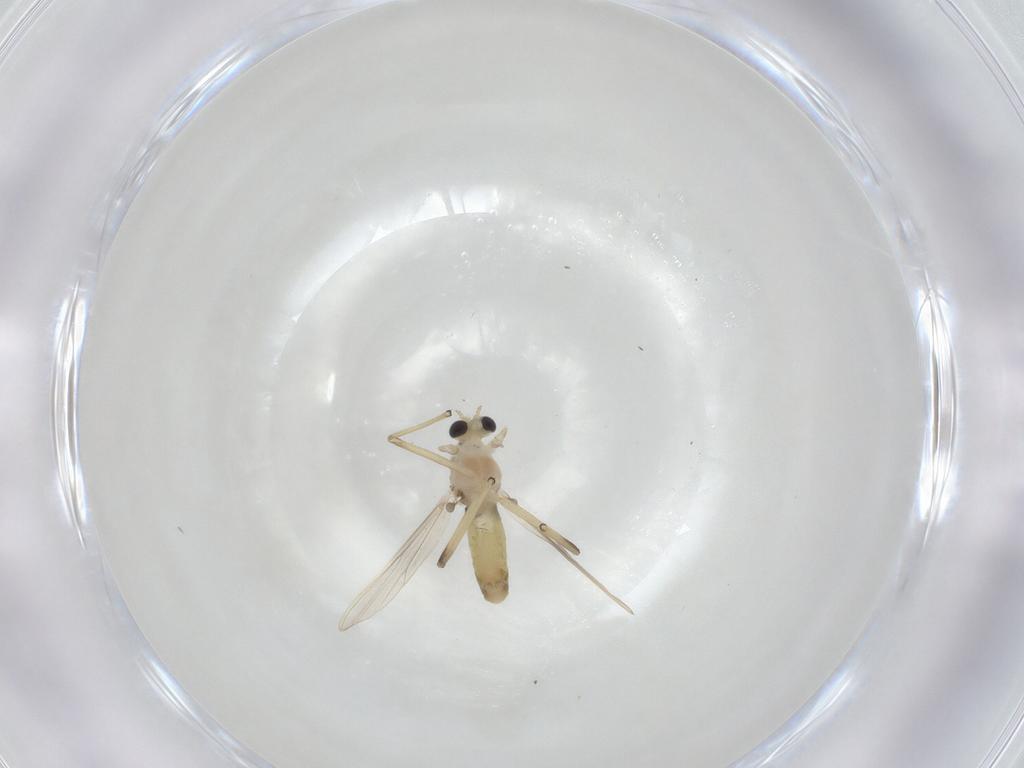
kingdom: Animalia
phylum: Arthropoda
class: Insecta
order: Diptera
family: Chironomidae
